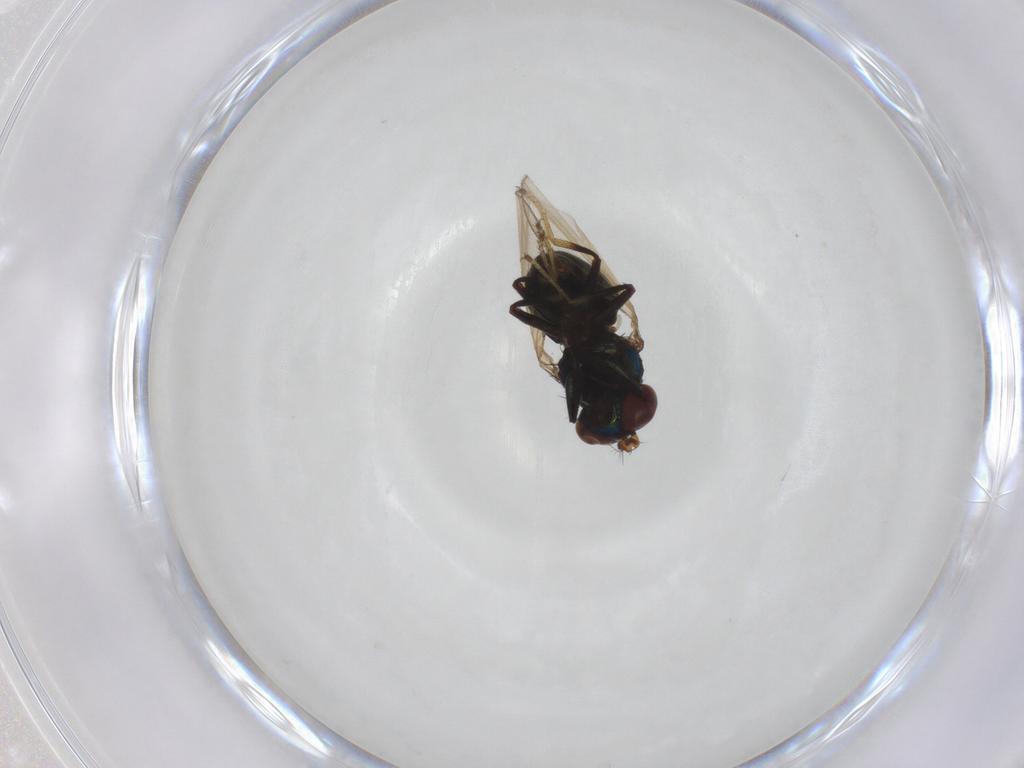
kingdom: Animalia
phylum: Arthropoda
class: Insecta
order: Diptera
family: Ephydridae
